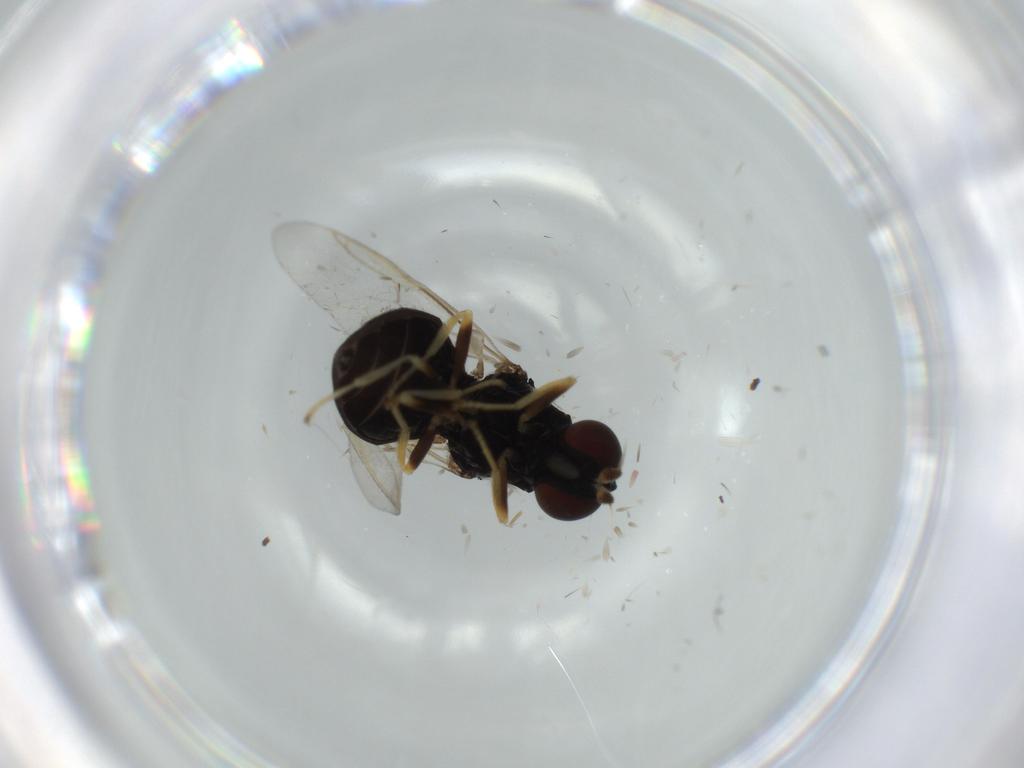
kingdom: Animalia
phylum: Arthropoda
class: Insecta
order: Diptera
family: Stratiomyidae
